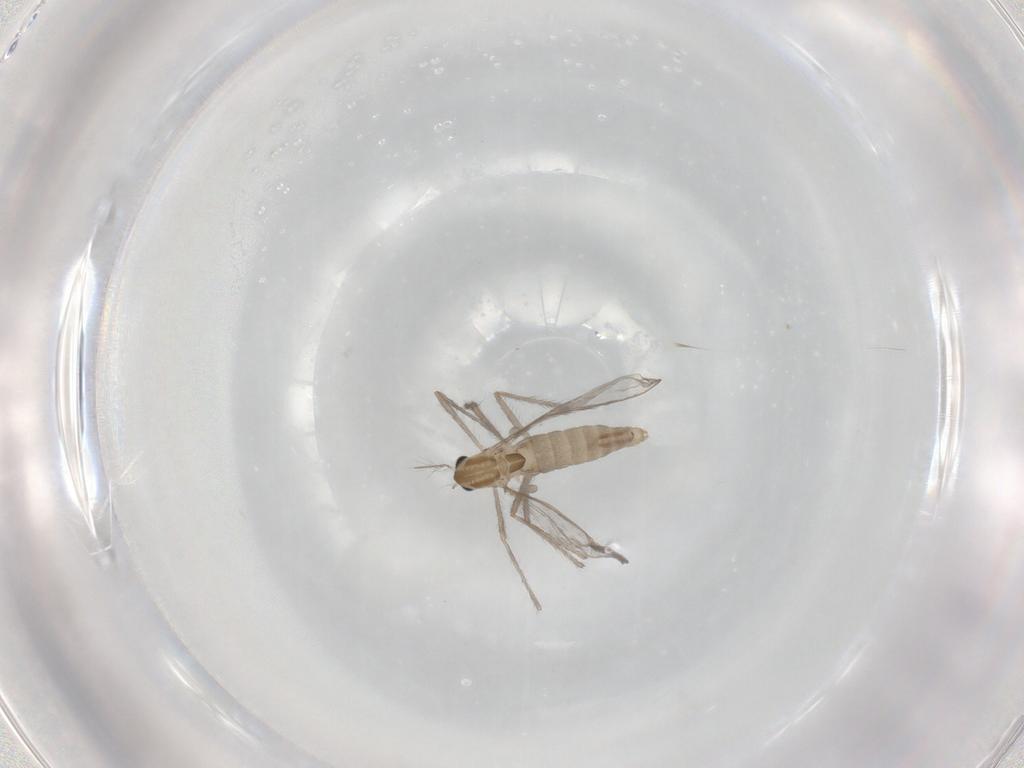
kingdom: Animalia
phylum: Arthropoda
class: Insecta
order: Diptera
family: Chironomidae
